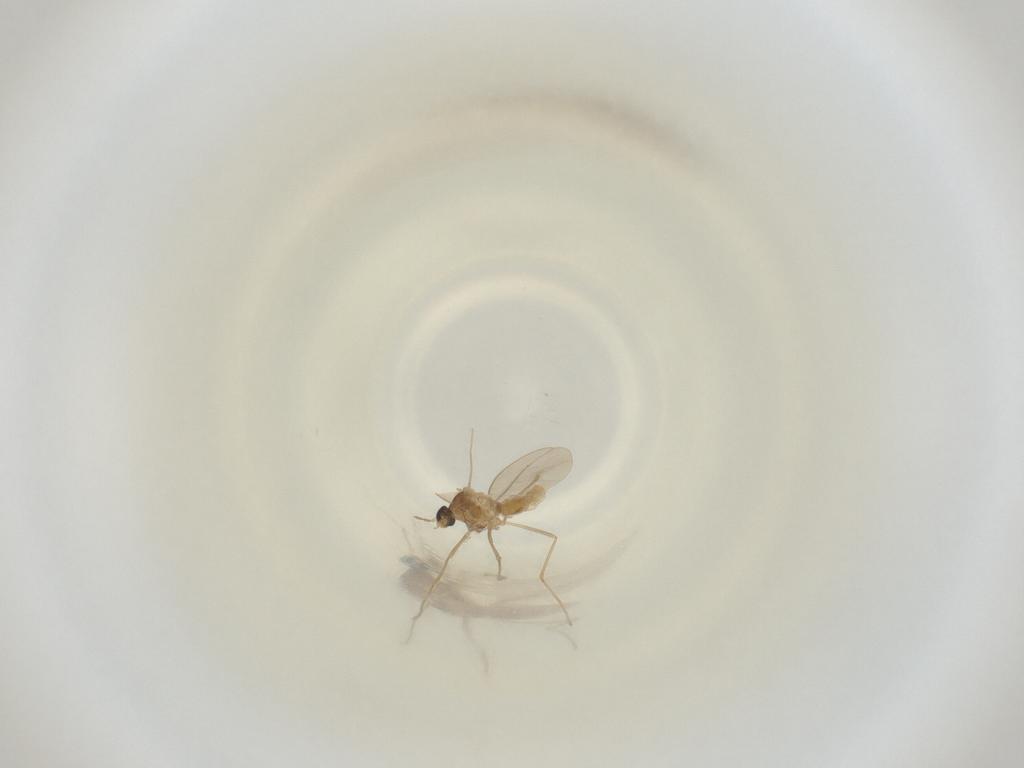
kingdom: Animalia
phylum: Arthropoda
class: Insecta
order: Diptera
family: Cecidomyiidae
